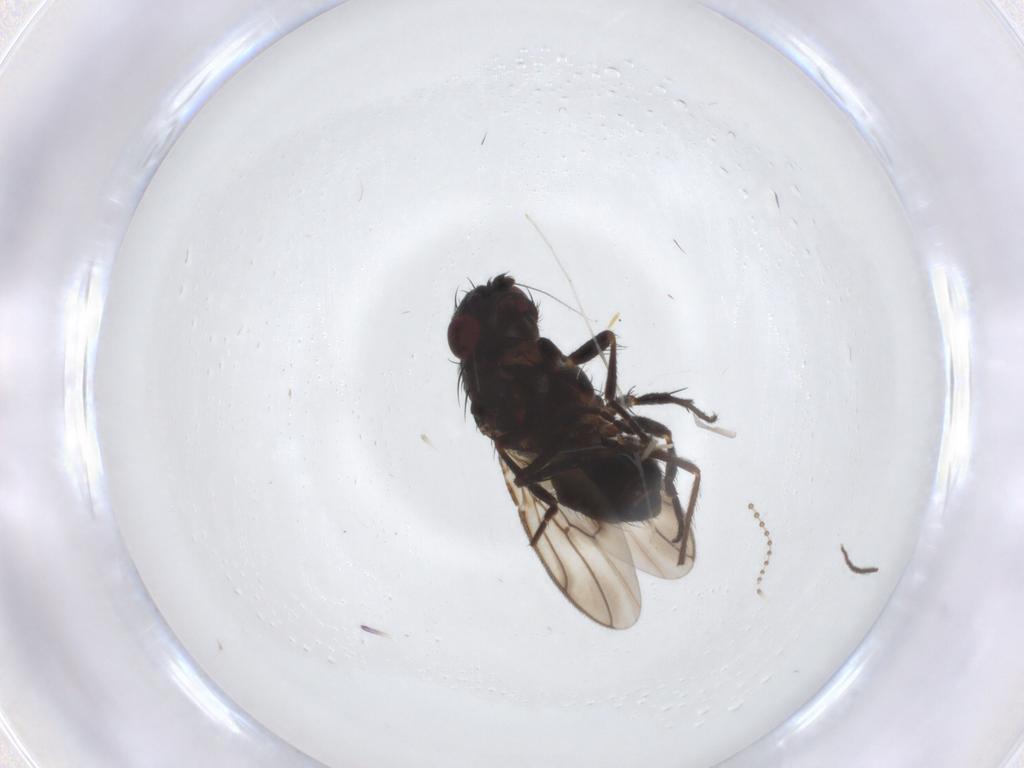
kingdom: Animalia
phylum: Arthropoda
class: Insecta
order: Diptera
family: Sphaeroceridae
